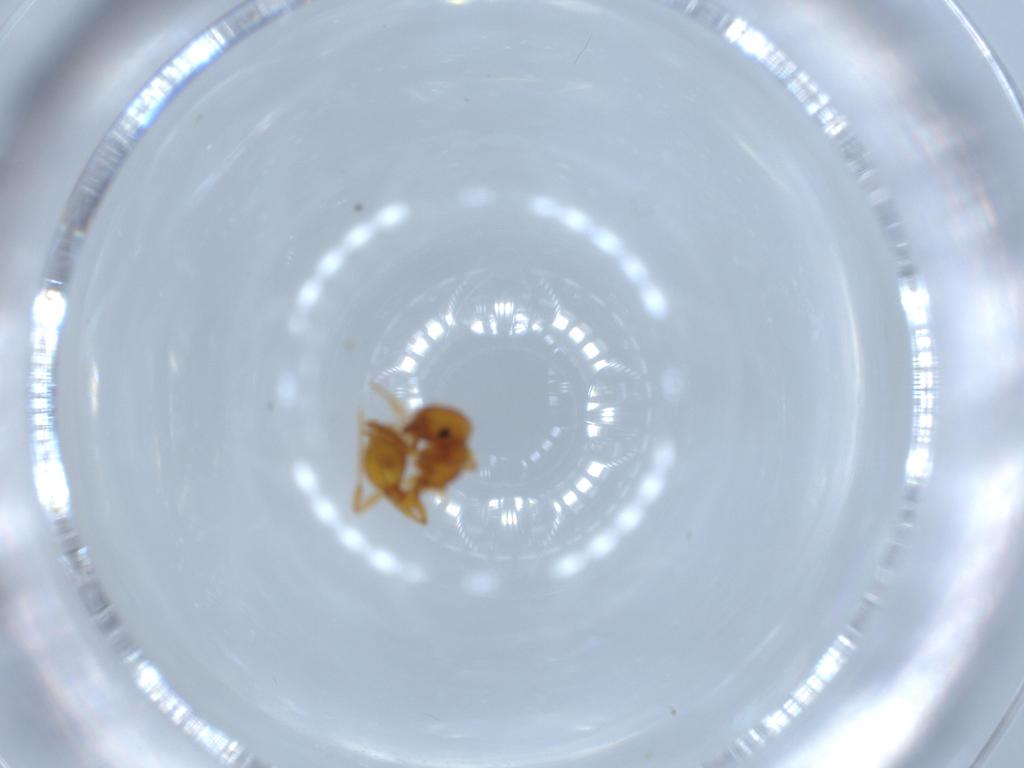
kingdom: Animalia
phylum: Arthropoda
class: Insecta
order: Hymenoptera
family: Formicidae
